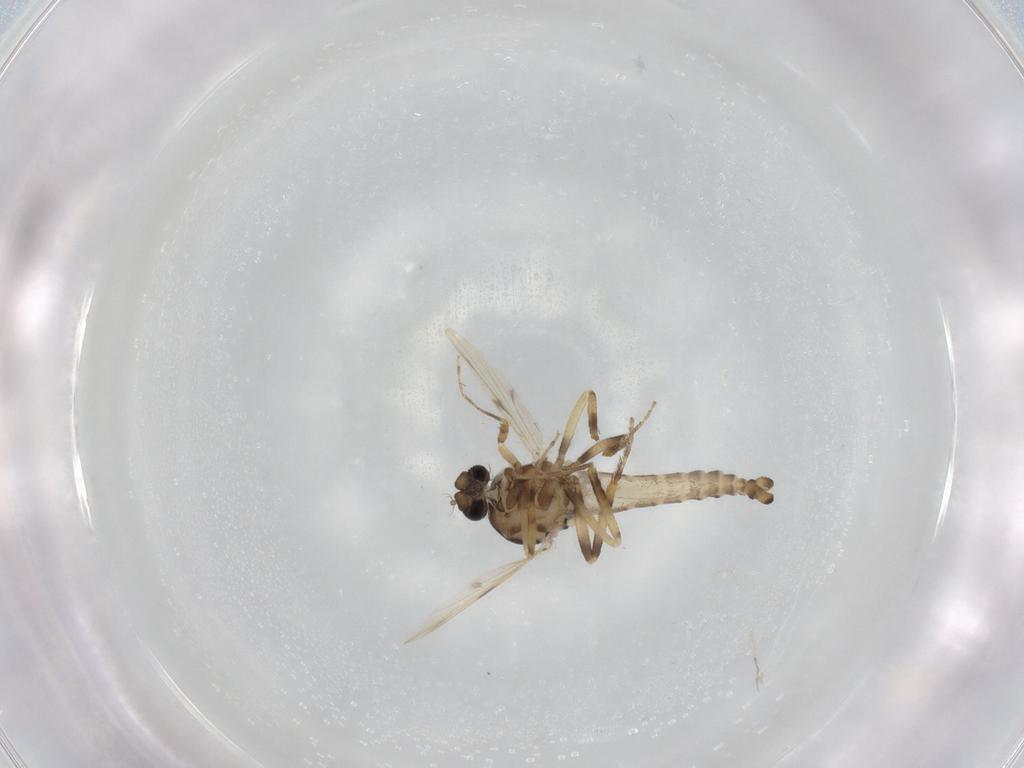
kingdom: Animalia
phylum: Arthropoda
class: Insecta
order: Diptera
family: Ceratopogonidae
